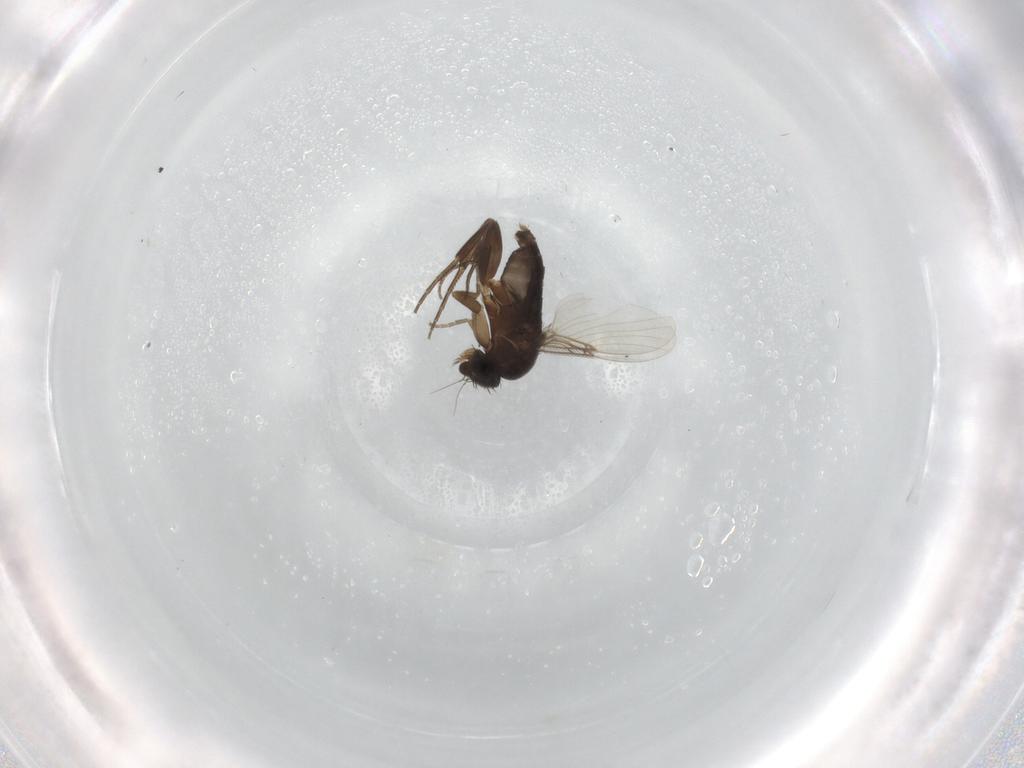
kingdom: Animalia
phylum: Arthropoda
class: Insecta
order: Diptera
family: Phoridae
